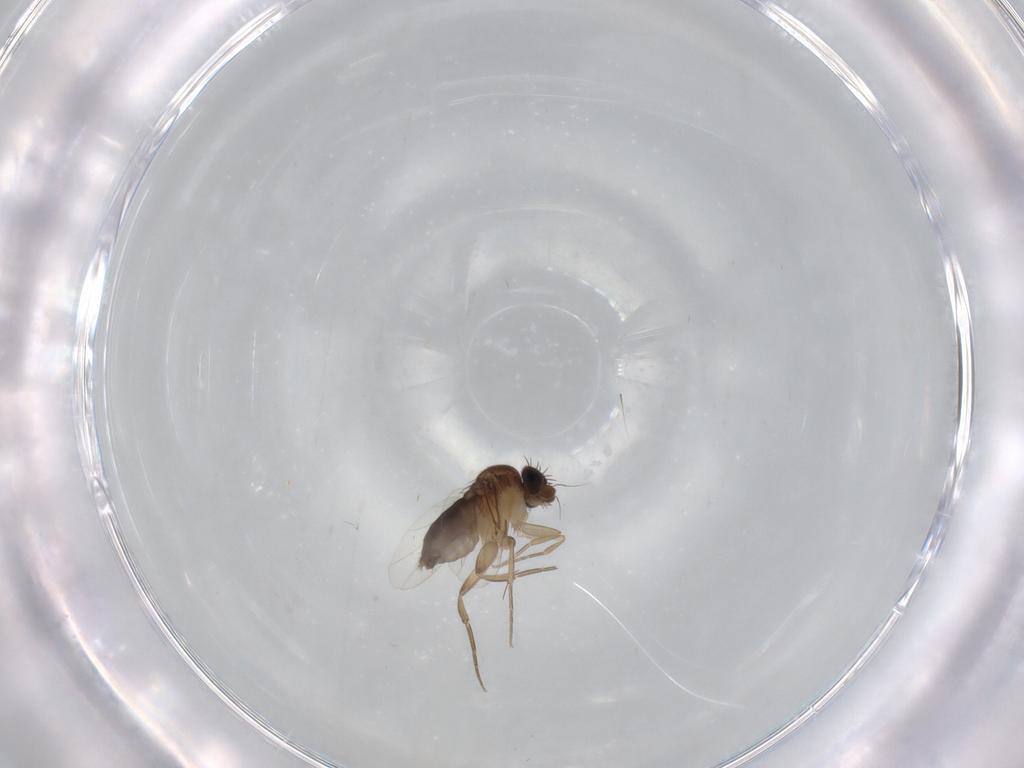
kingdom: Animalia
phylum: Arthropoda
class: Insecta
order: Diptera
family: Phoridae
